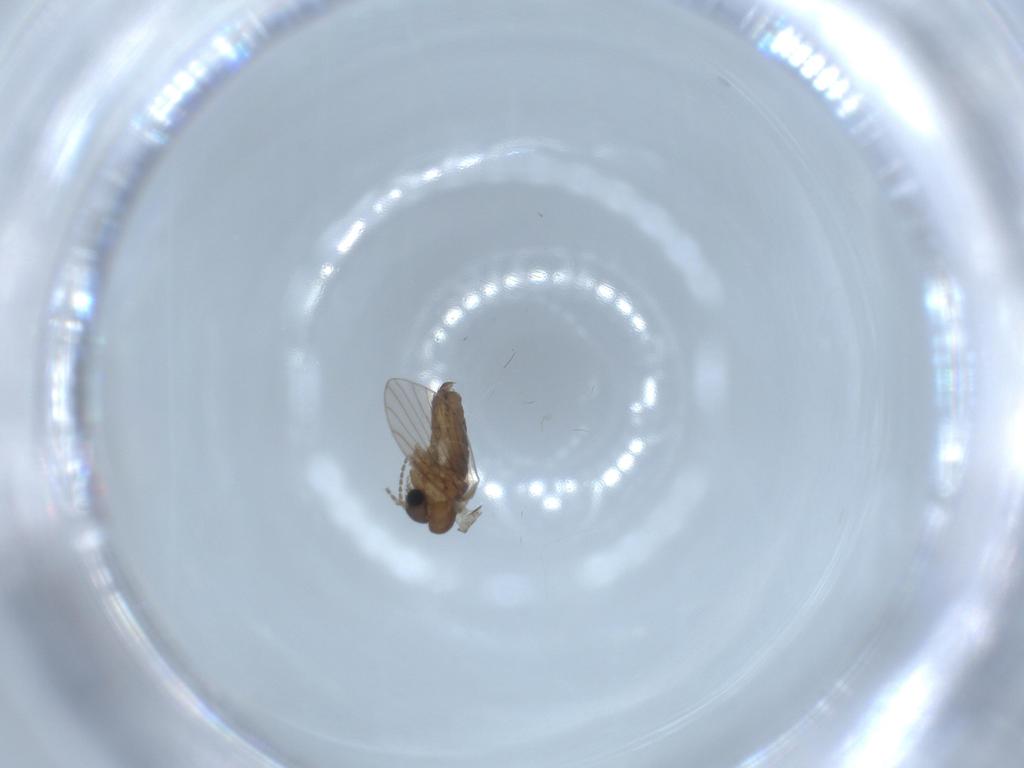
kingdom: Animalia
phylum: Arthropoda
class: Insecta
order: Diptera
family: Psychodidae
